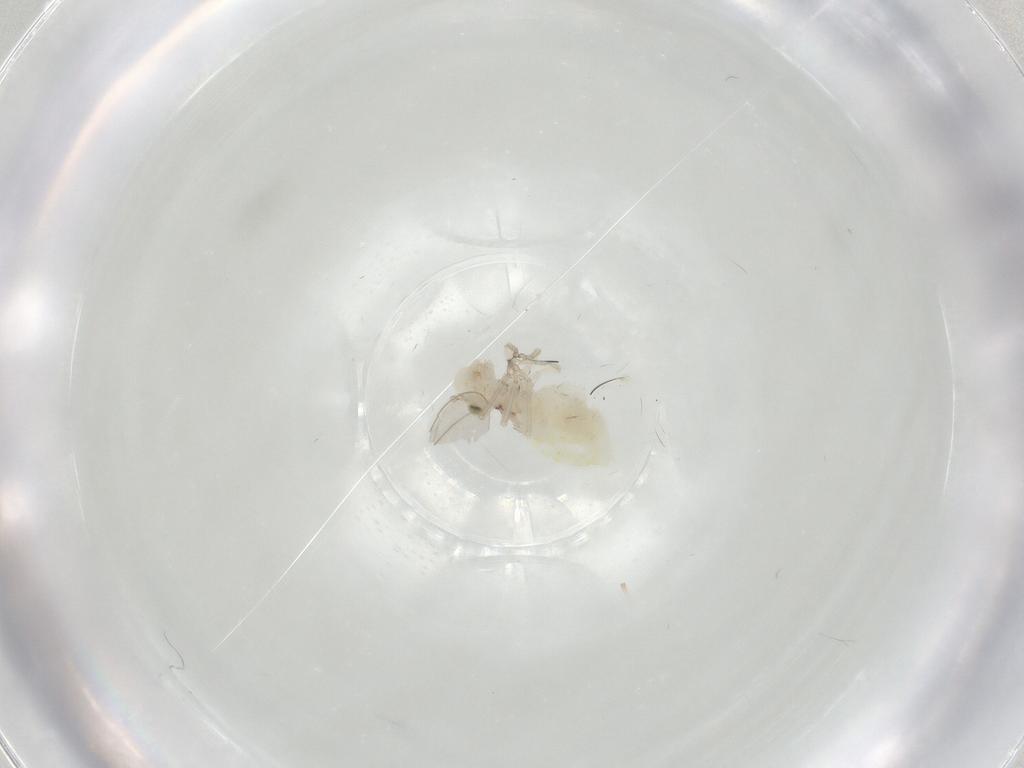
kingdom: Animalia
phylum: Arthropoda
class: Insecta
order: Psocodea
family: Caeciliusidae
